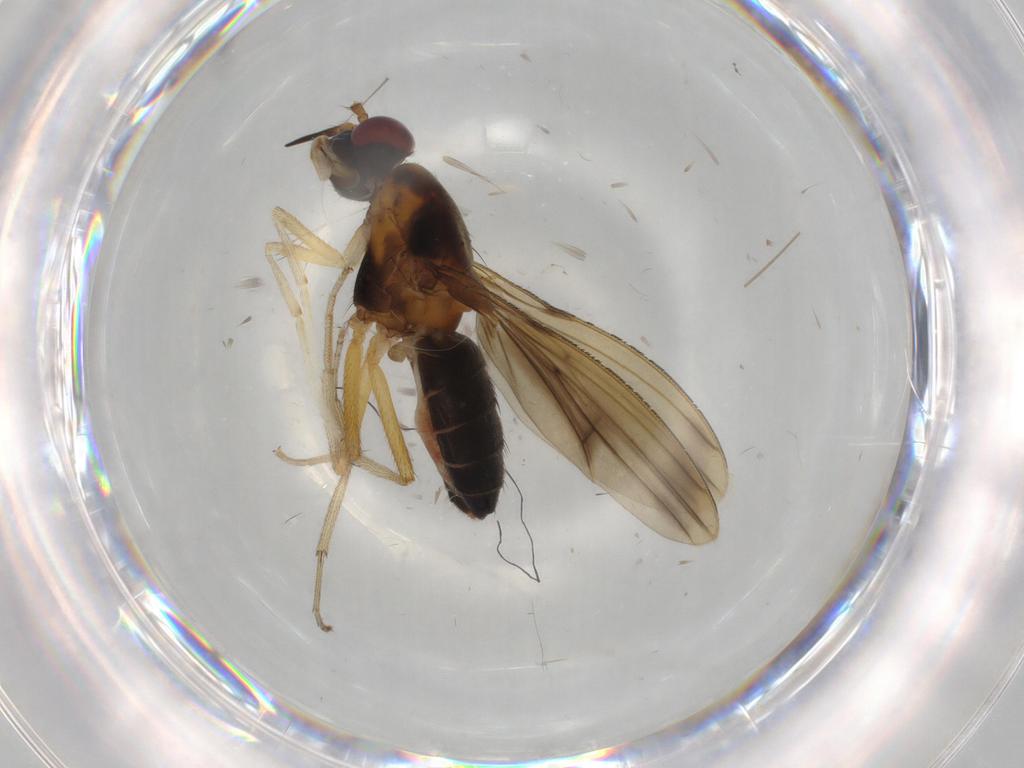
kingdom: Animalia
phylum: Arthropoda
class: Insecta
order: Diptera
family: Lauxaniidae
